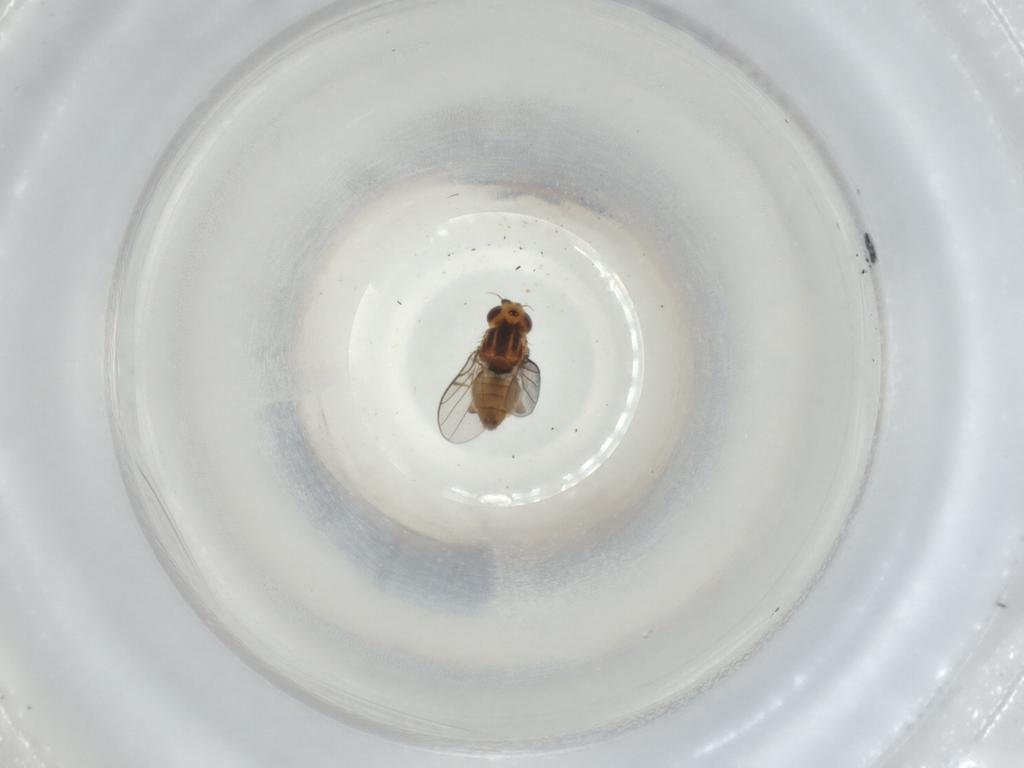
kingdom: Animalia
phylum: Arthropoda
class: Insecta
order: Diptera
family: Chloropidae
